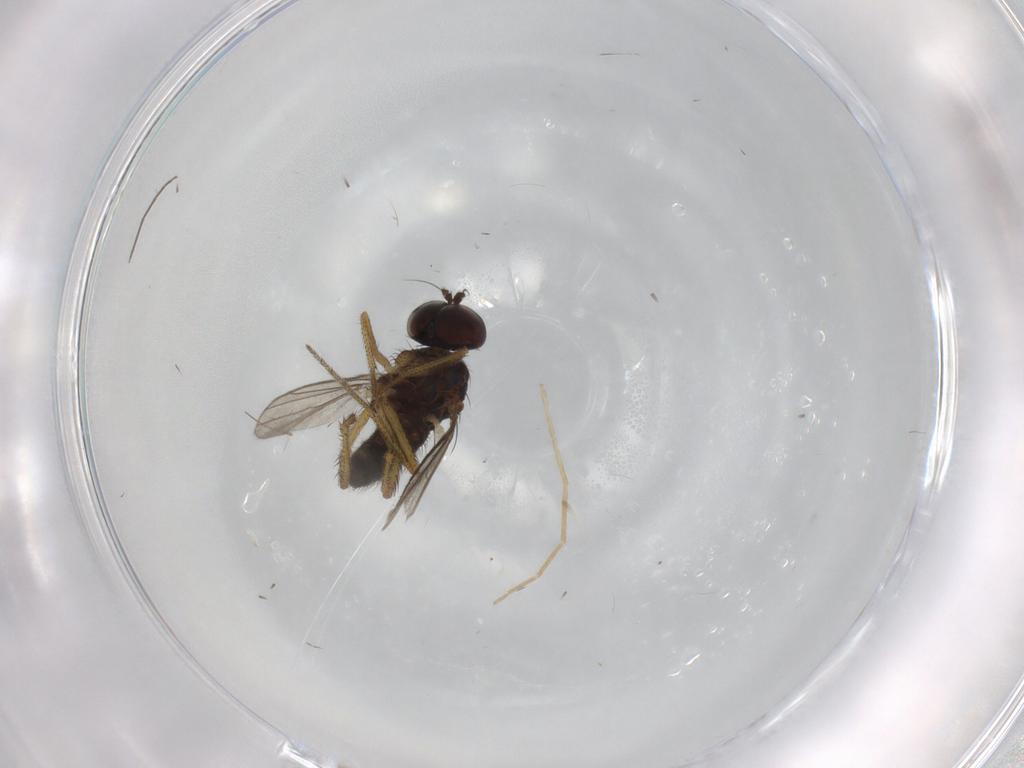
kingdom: Animalia
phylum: Arthropoda
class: Insecta
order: Diptera
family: Chironomidae
